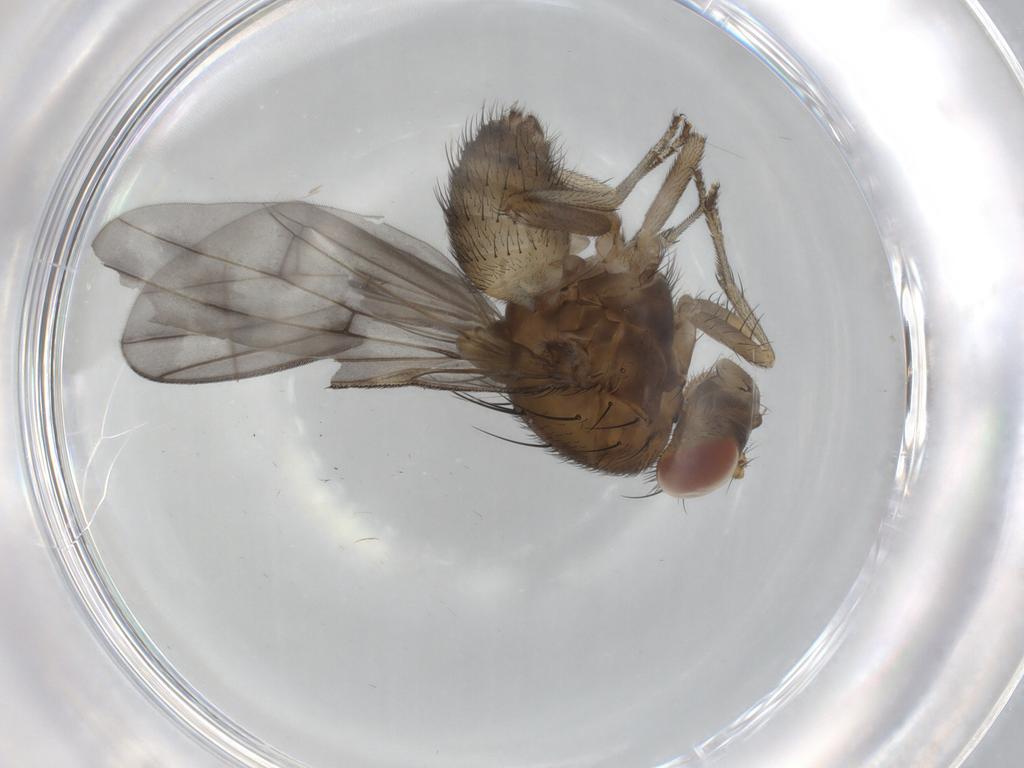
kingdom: Animalia
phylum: Arthropoda
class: Insecta
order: Diptera
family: Chironomidae
